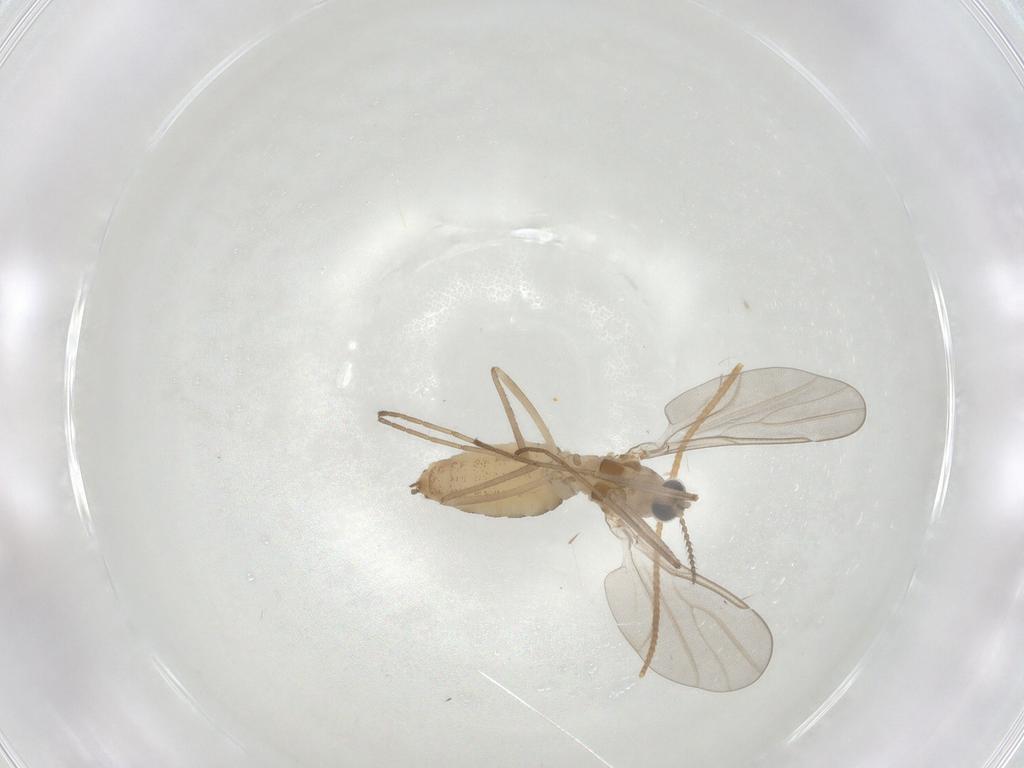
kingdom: Animalia
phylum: Arthropoda
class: Insecta
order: Diptera
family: Cecidomyiidae
